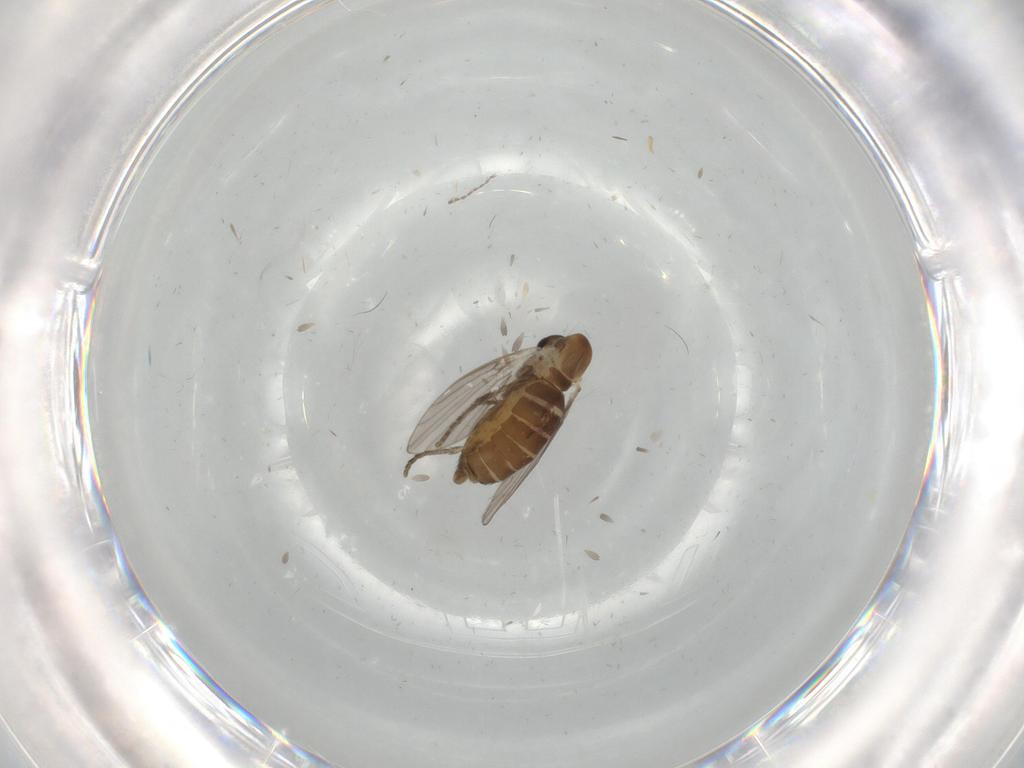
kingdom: Animalia
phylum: Arthropoda
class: Insecta
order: Diptera
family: Psychodidae
